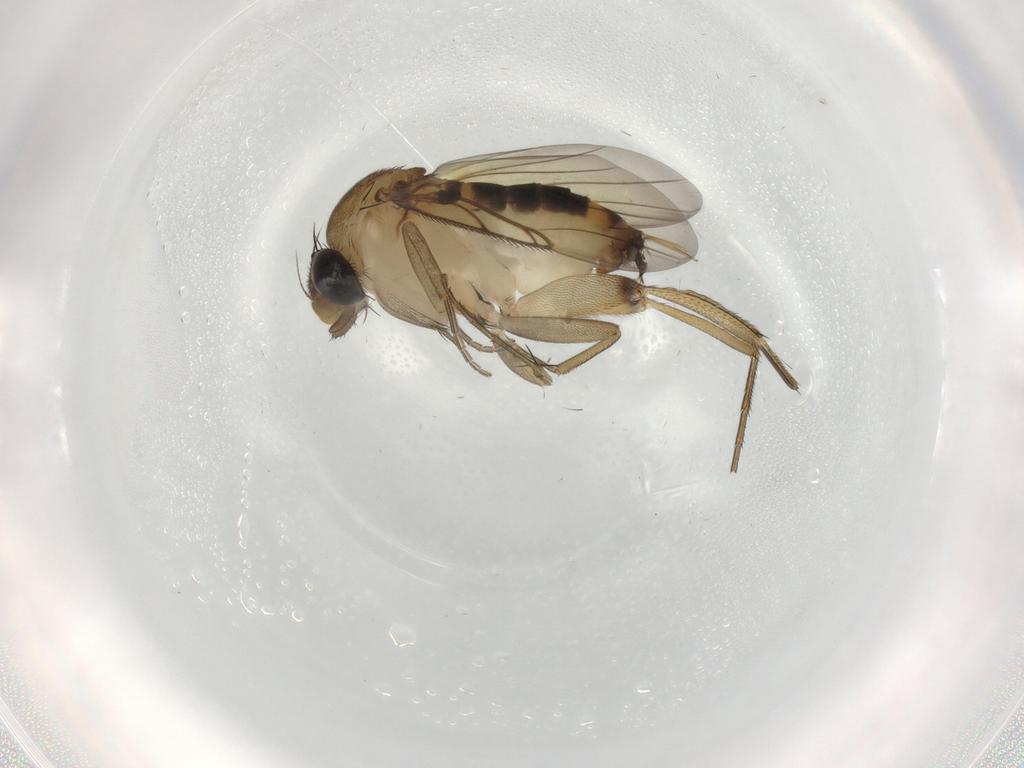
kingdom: Animalia
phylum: Arthropoda
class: Insecta
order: Diptera
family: Phoridae
